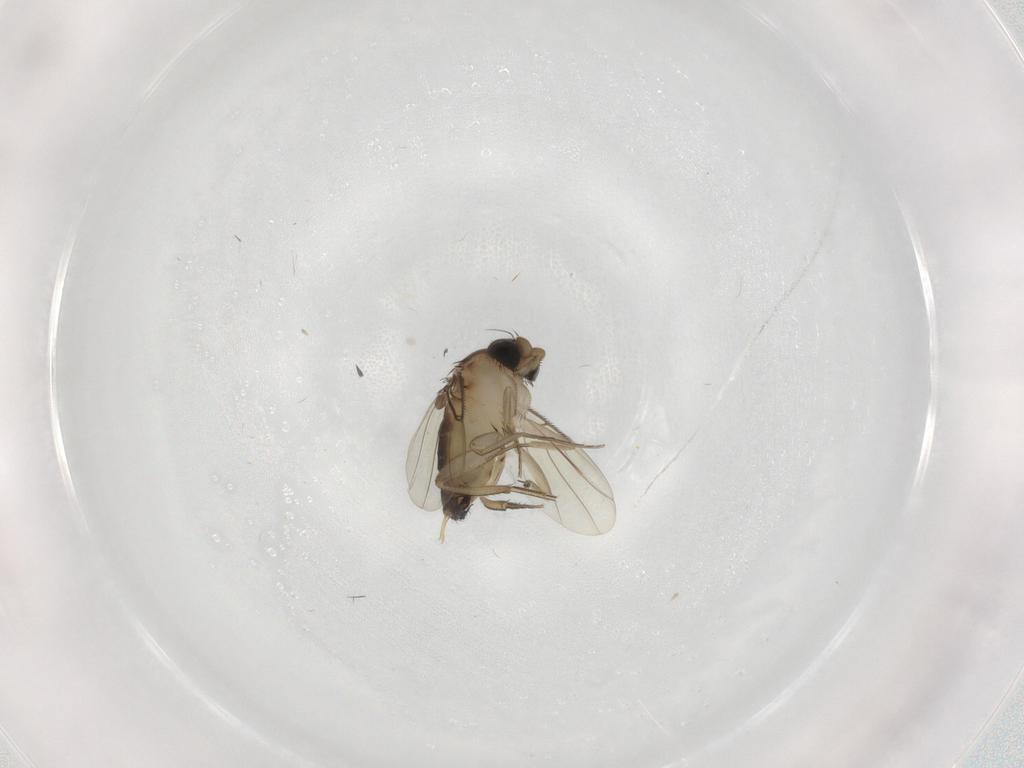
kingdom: Animalia
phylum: Arthropoda
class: Insecta
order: Diptera
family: Phoridae
